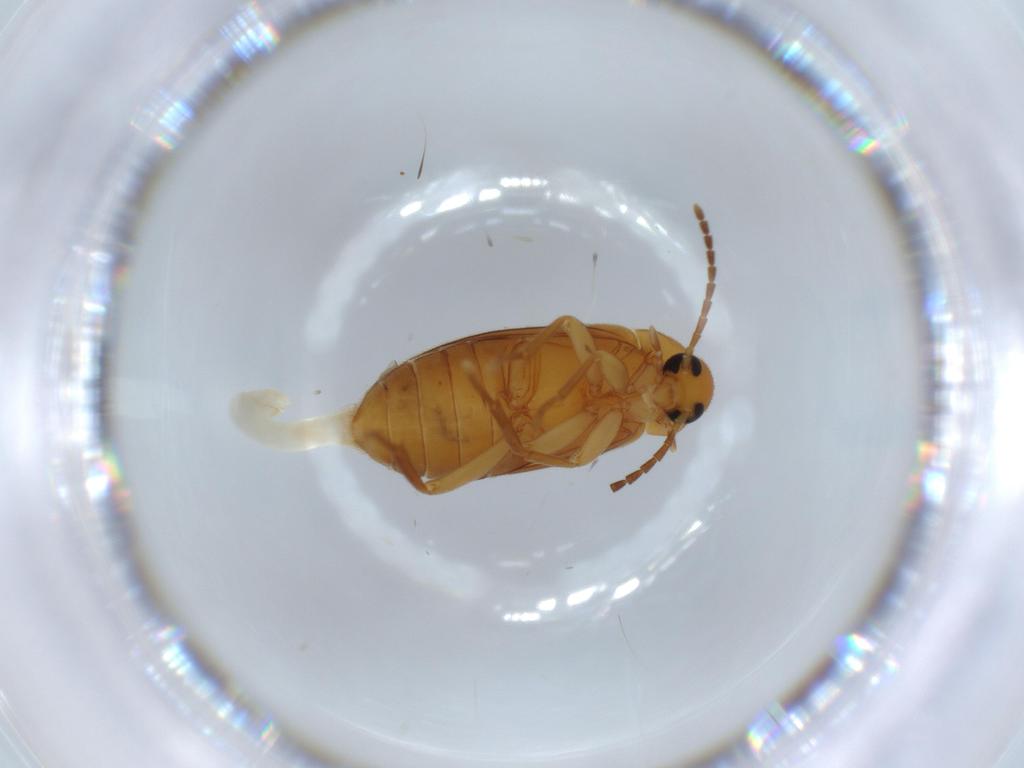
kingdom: Animalia
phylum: Arthropoda
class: Insecta
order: Coleoptera
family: Scraptiidae
